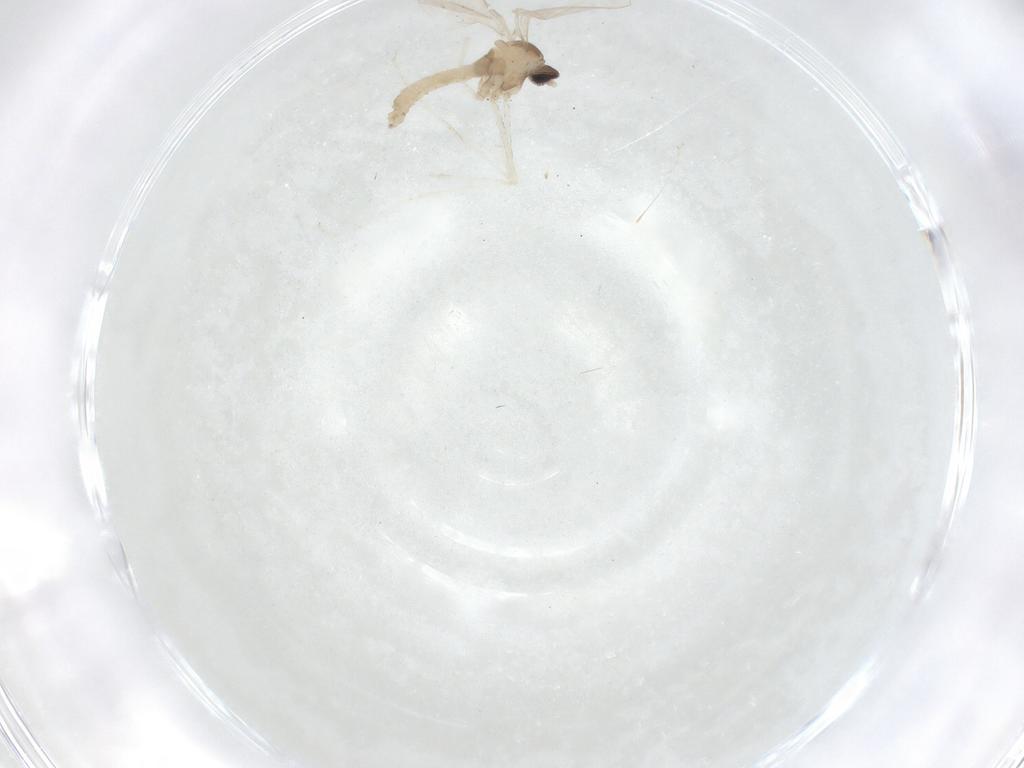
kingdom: Animalia
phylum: Arthropoda
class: Insecta
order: Diptera
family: Cecidomyiidae
